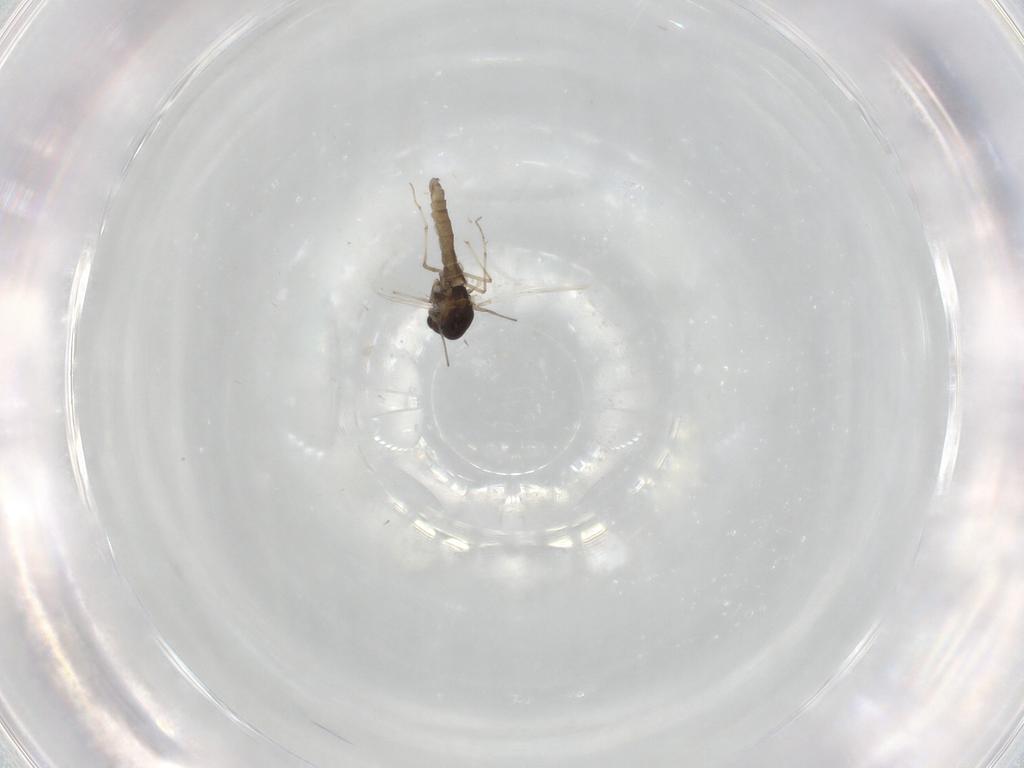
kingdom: Animalia
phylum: Arthropoda
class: Insecta
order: Diptera
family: Chironomidae
